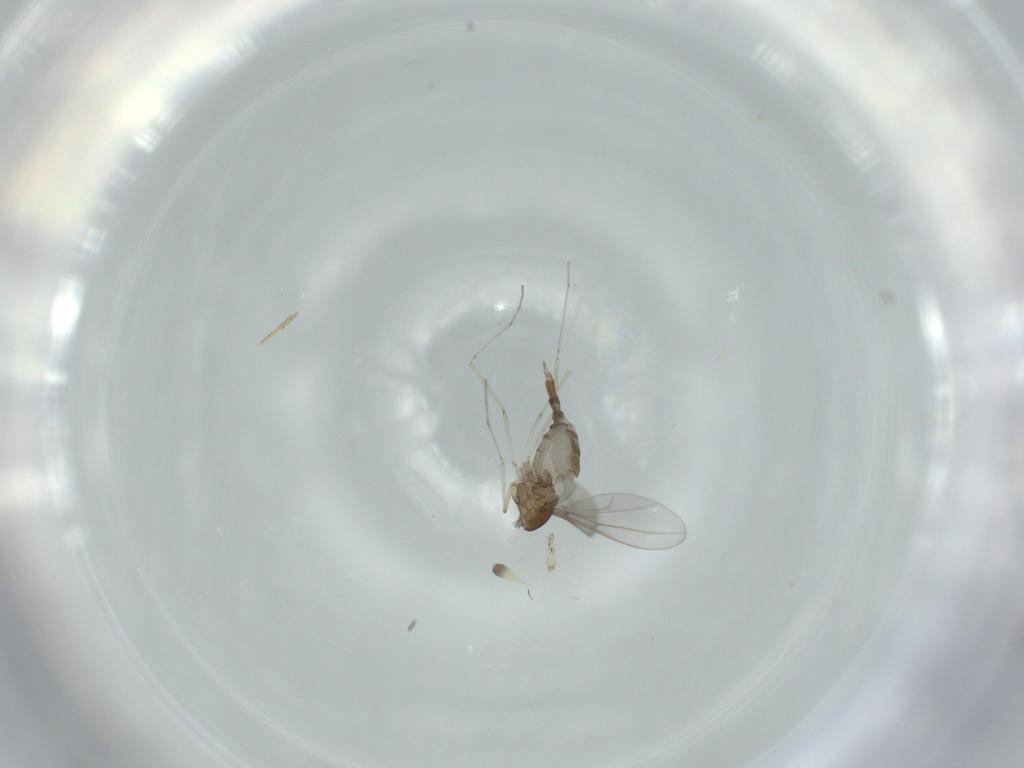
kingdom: Animalia
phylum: Arthropoda
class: Insecta
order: Diptera
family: Cecidomyiidae
